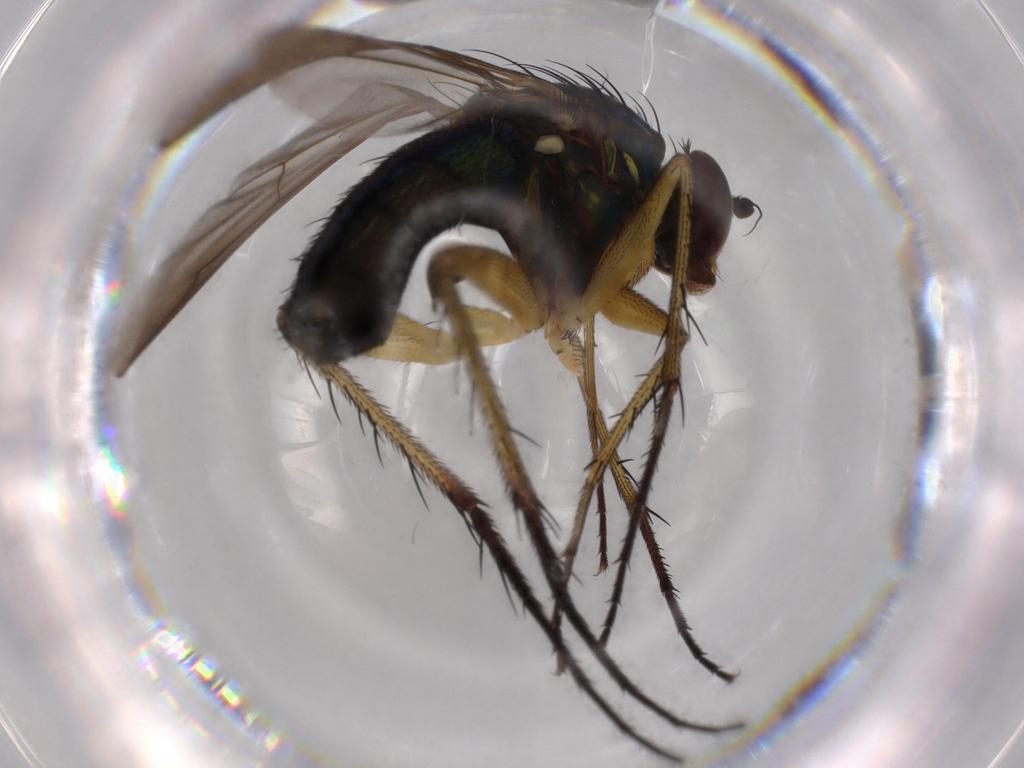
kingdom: Animalia
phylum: Arthropoda
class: Insecta
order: Diptera
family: Dolichopodidae
